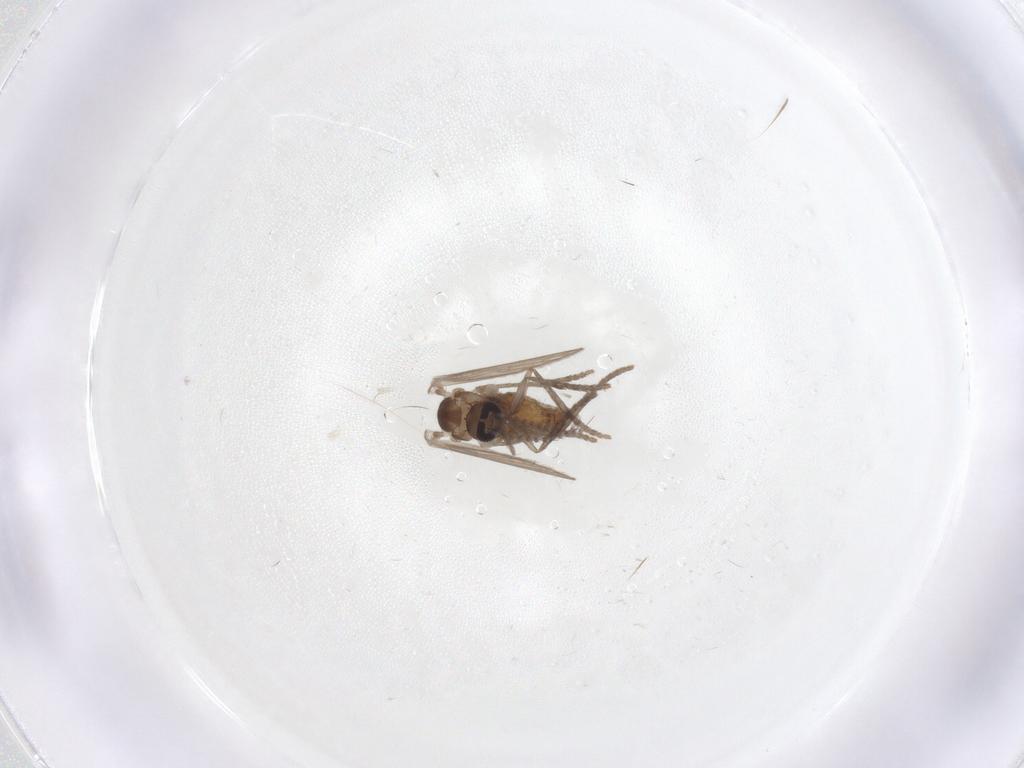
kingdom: Animalia
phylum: Arthropoda
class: Insecta
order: Diptera
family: Psychodidae
